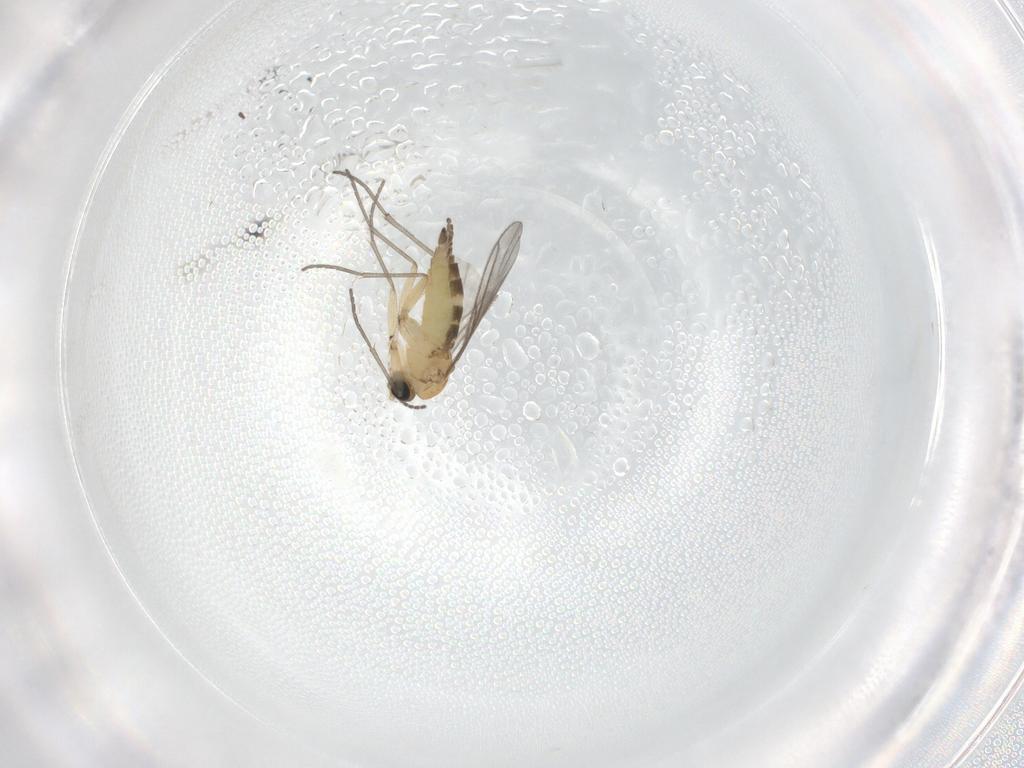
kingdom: Animalia
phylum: Arthropoda
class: Insecta
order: Diptera
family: Sciaridae
